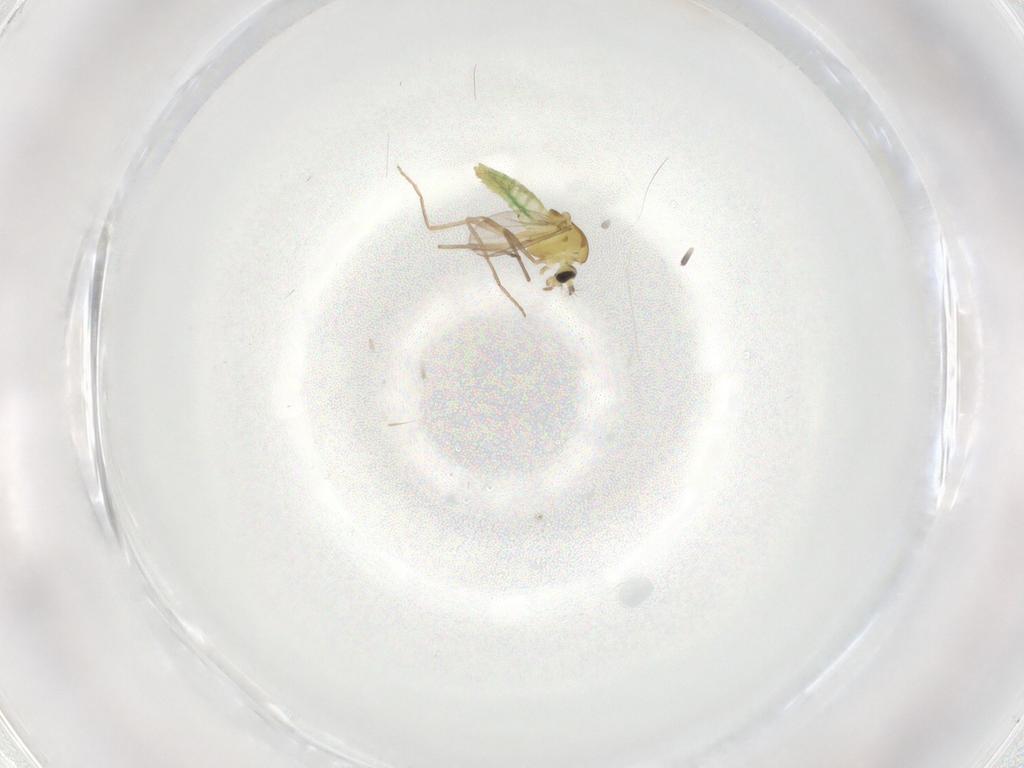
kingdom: Animalia
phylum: Arthropoda
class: Insecta
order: Diptera
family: Chironomidae
